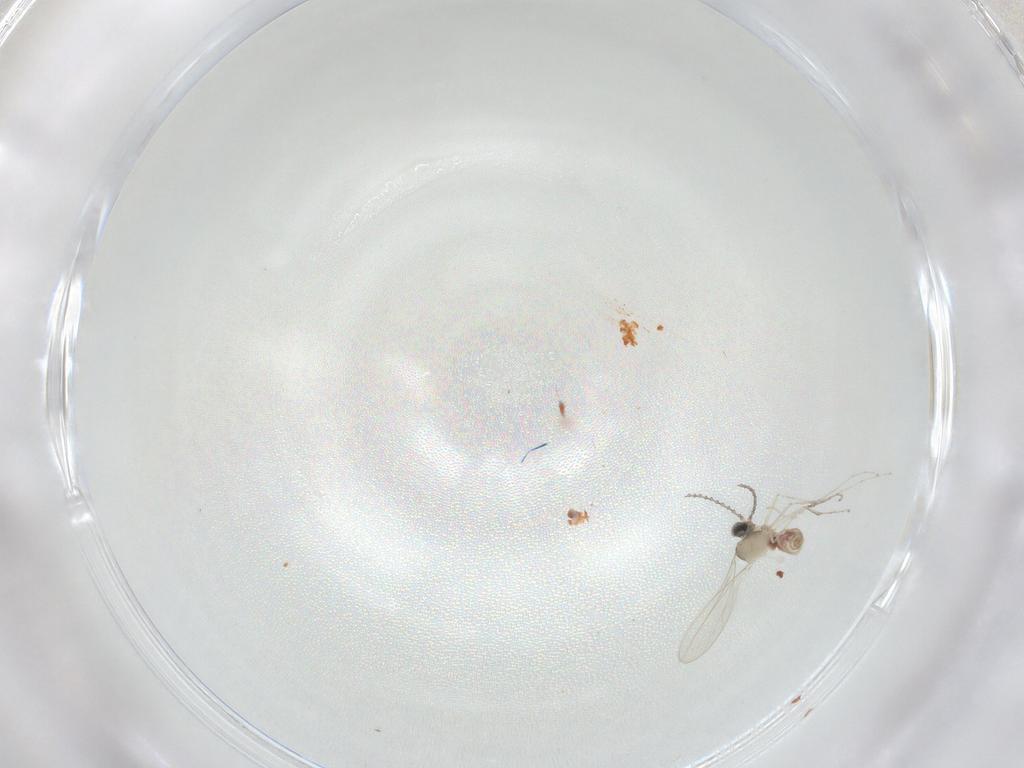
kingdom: Animalia
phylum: Arthropoda
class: Insecta
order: Diptera
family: Cecidomyiidae
